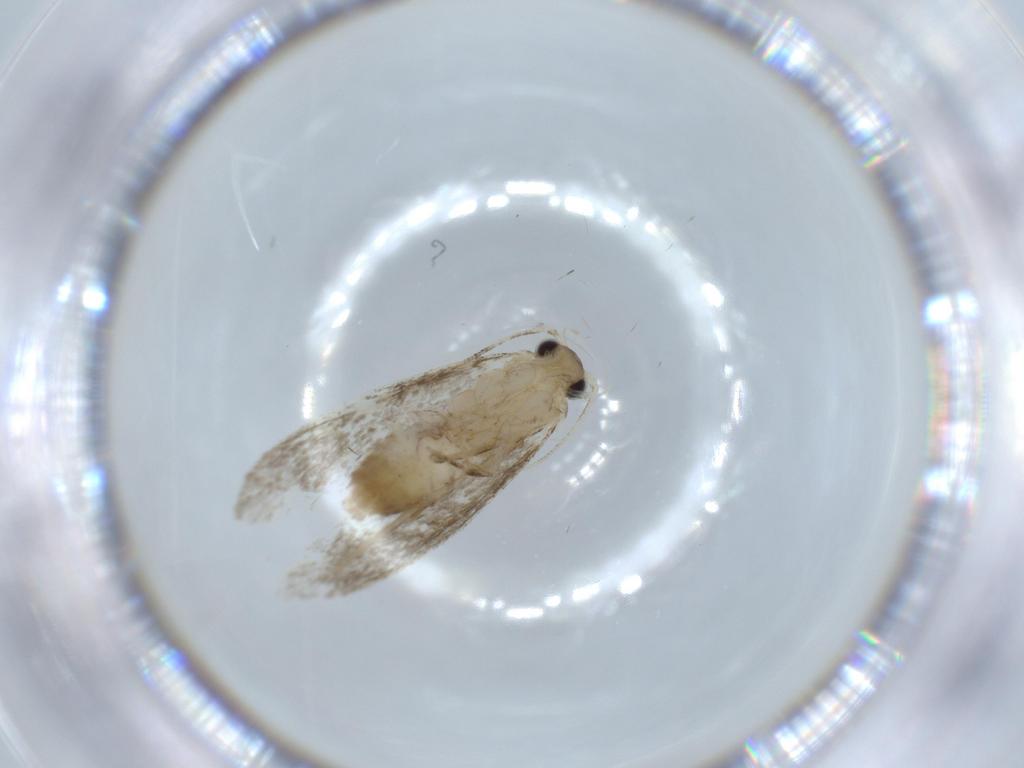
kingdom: Animalia
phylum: Arthropoda
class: Insecta
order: Lepidoptera
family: Tineidae
